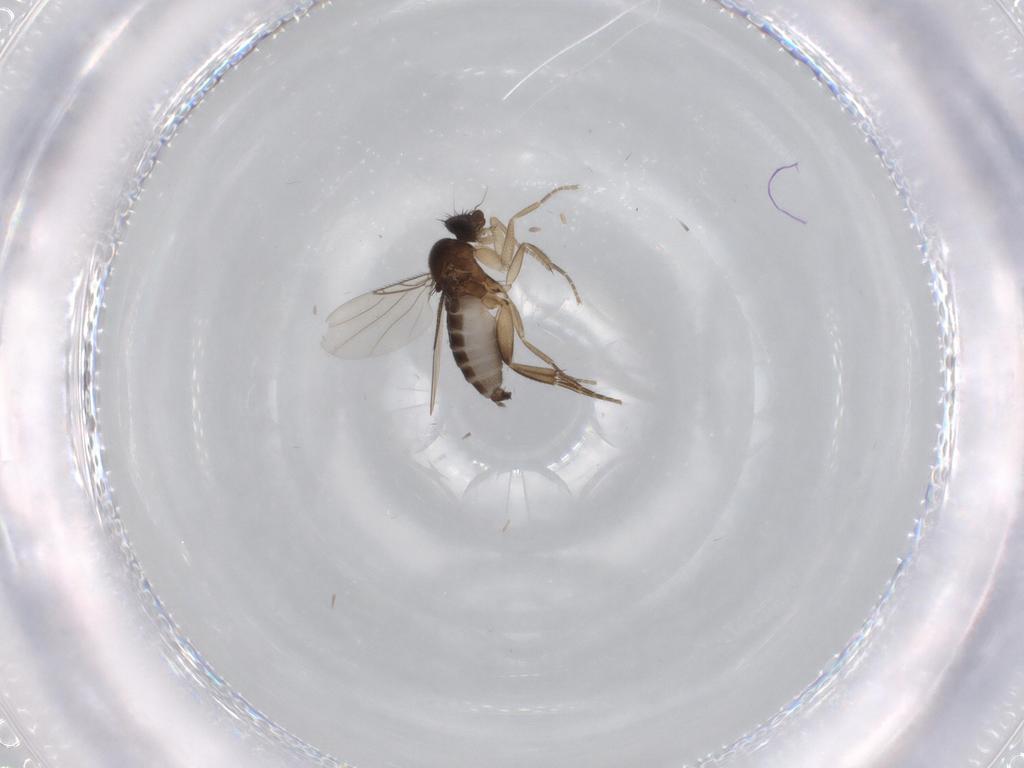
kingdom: Animalia
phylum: Arthropoda
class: Insecta
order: Diptera
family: Phoridae
